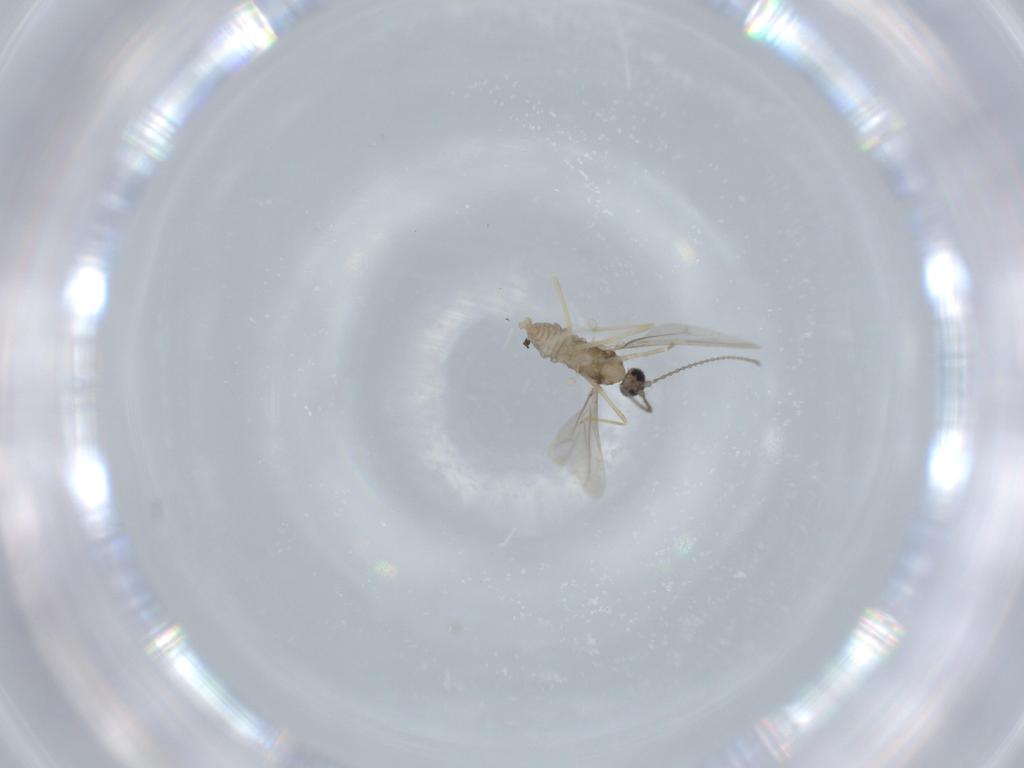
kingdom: Animalia
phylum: Arthropoda
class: Insecta
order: Diptera
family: Cecidomyiidae
